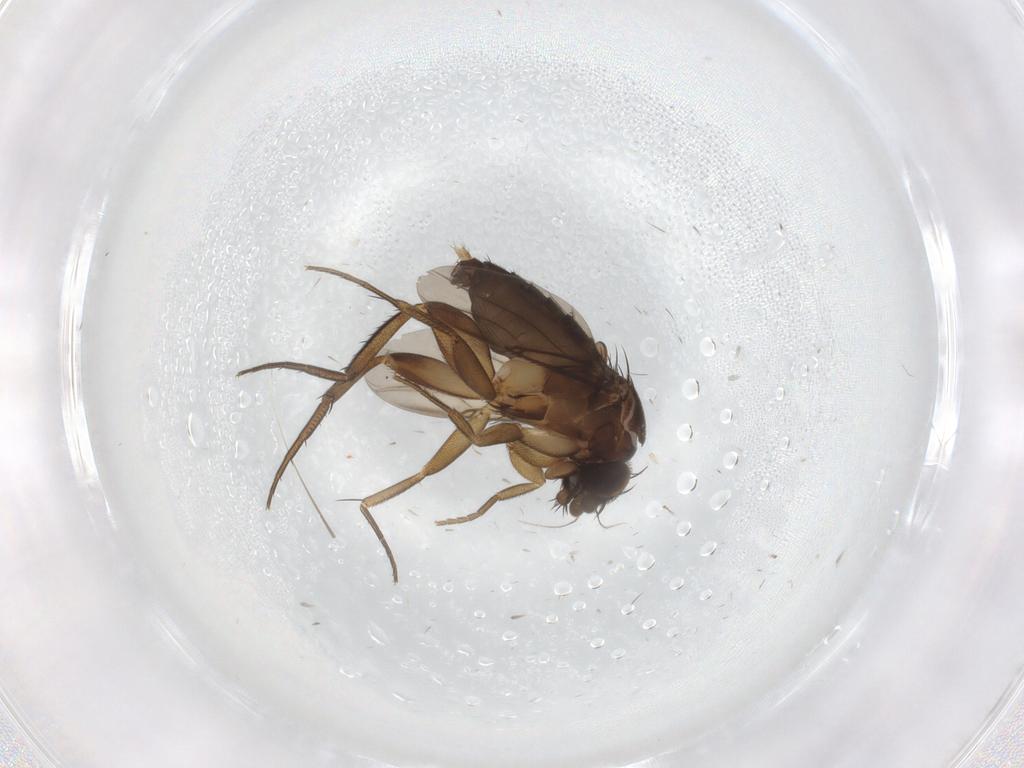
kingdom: Animalia
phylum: Arthropoda
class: Insecta
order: Diptera
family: Phoridae
